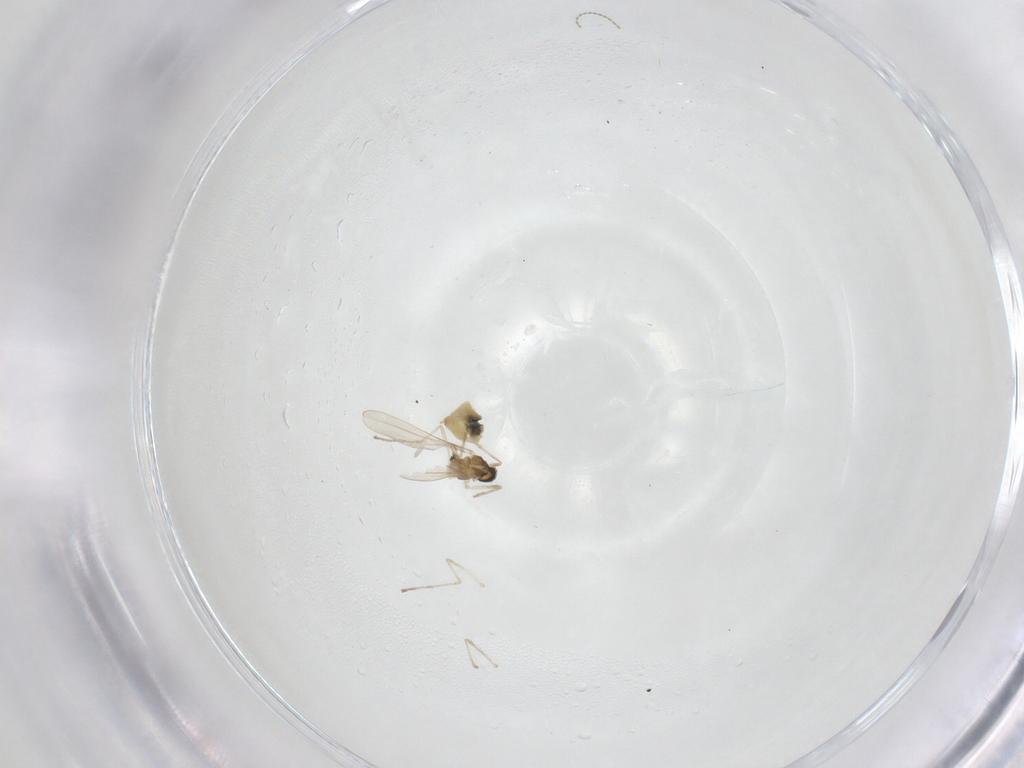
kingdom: Animalia
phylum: Arthropoda
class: Insecta
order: Diptera
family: Cecidomyiidae
